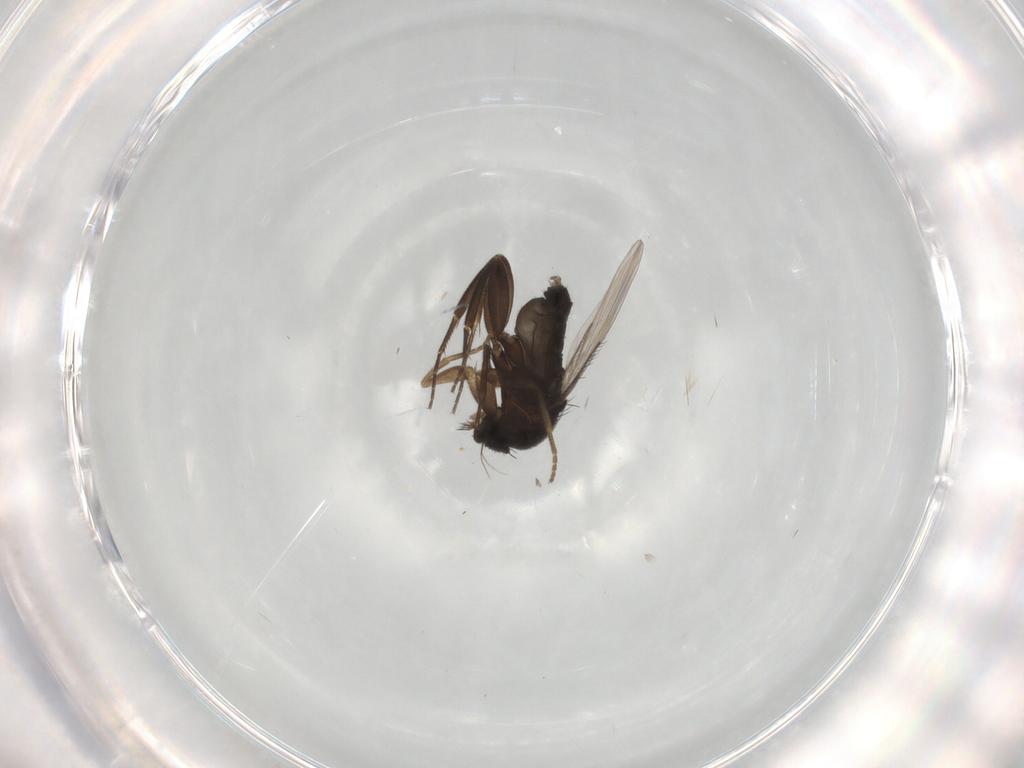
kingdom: Animalia
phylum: Arthropoda
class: Insecta
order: Diptera
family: Phoridae
